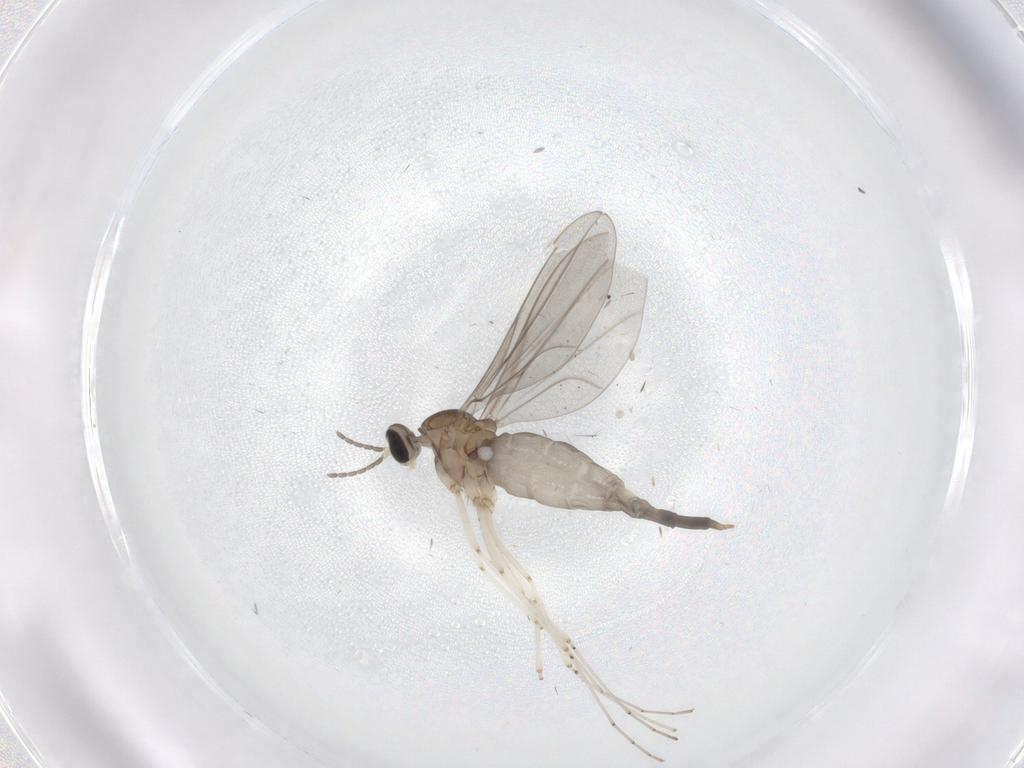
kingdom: Animalia
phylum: Arthropoda
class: Insecta
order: Diptera
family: Cecidomyiidae
